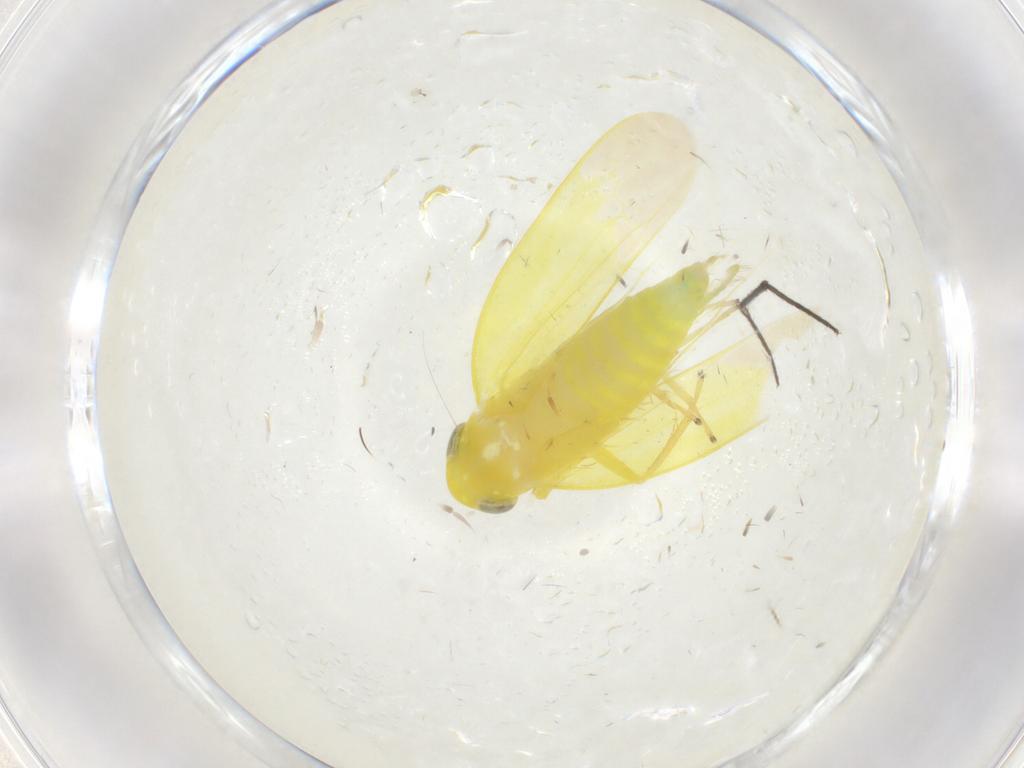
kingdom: Animalia
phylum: Arthropoda
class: Insecta
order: Hemiptera
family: Cicadellidae
